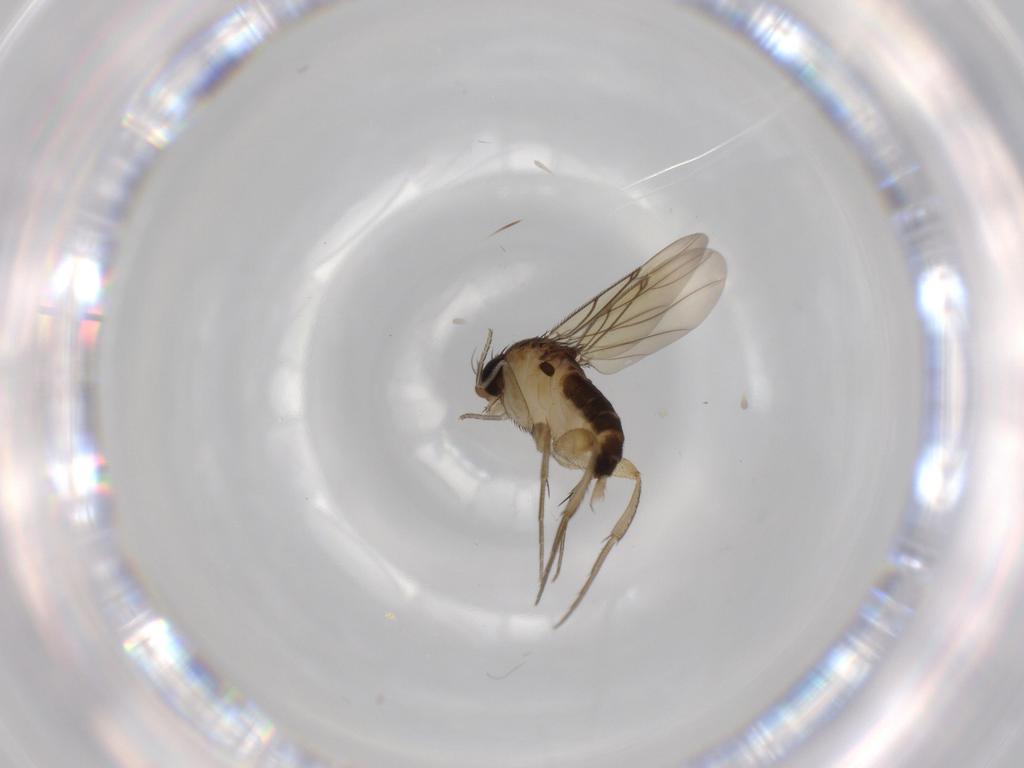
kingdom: Animalia
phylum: Arthropoda
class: Insecta
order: Diptera
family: Phoridae
